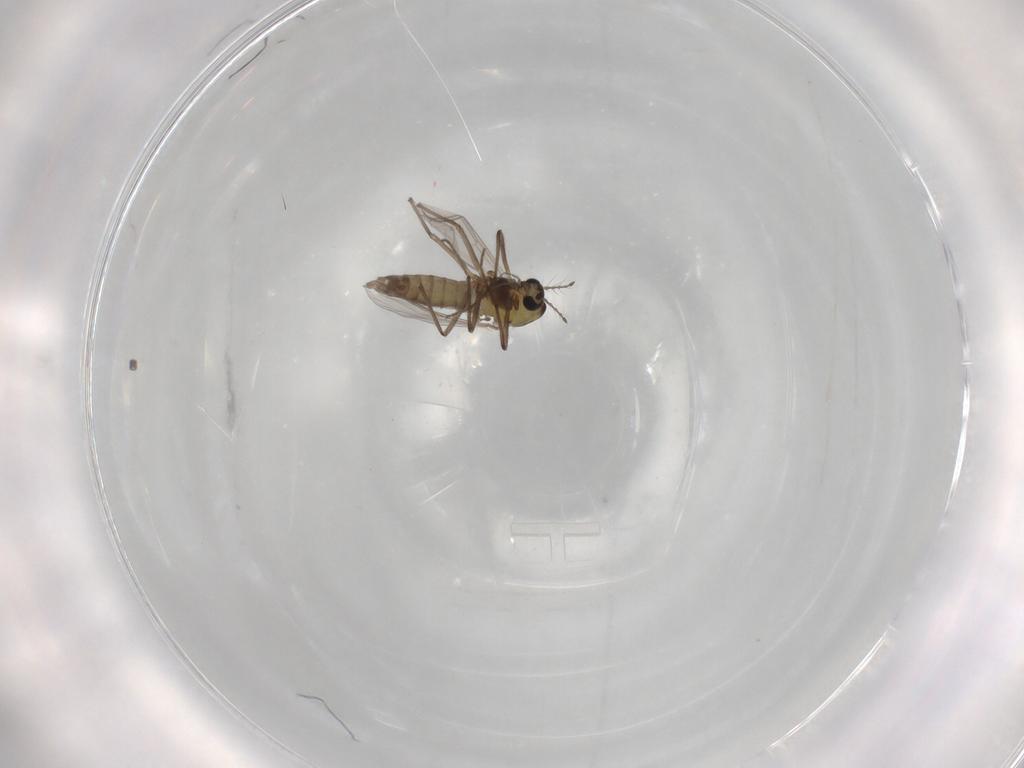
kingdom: Animalia
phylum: Arthropoda
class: Insecta
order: Diptera
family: Chironomidae
